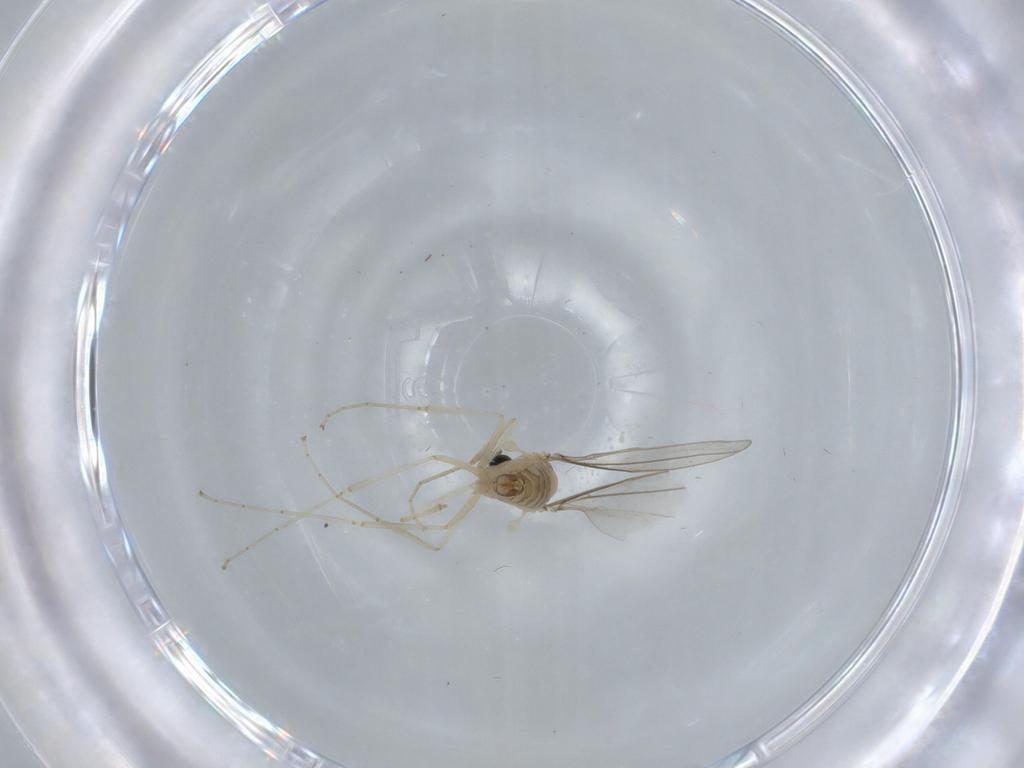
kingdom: Animalia
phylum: Arthropoda
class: Insecta
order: Diptera
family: Cecidomyiidae
